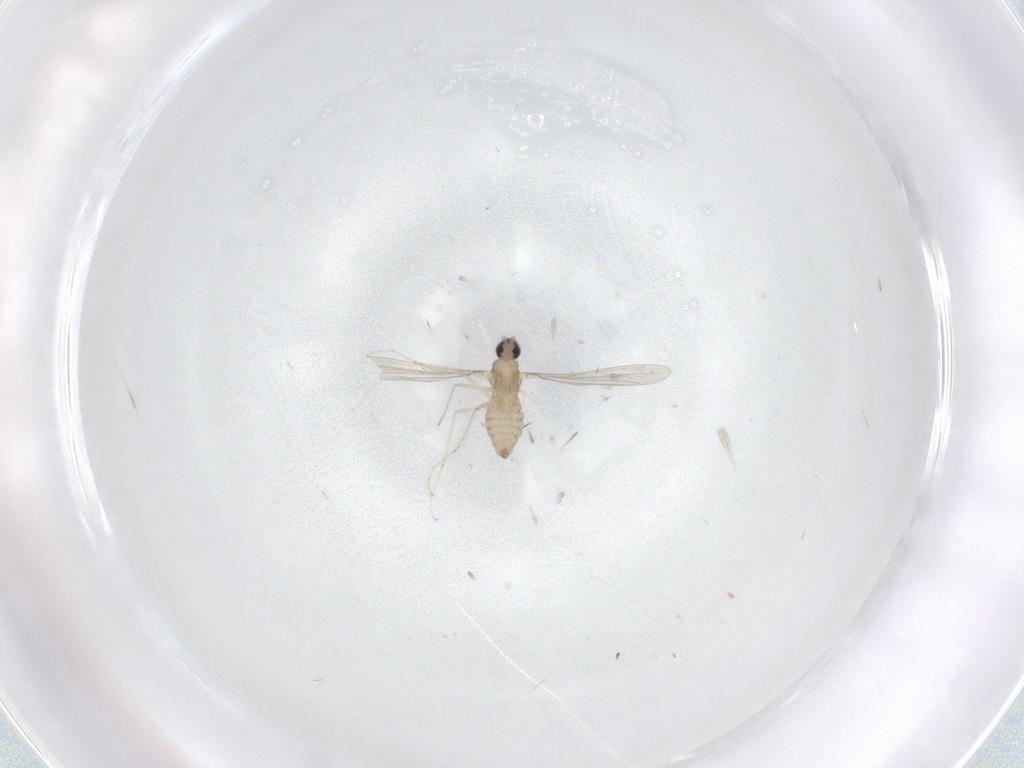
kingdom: Animalia
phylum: Arthropoda
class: Insecta
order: Diptera
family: Cecidomyiidae
